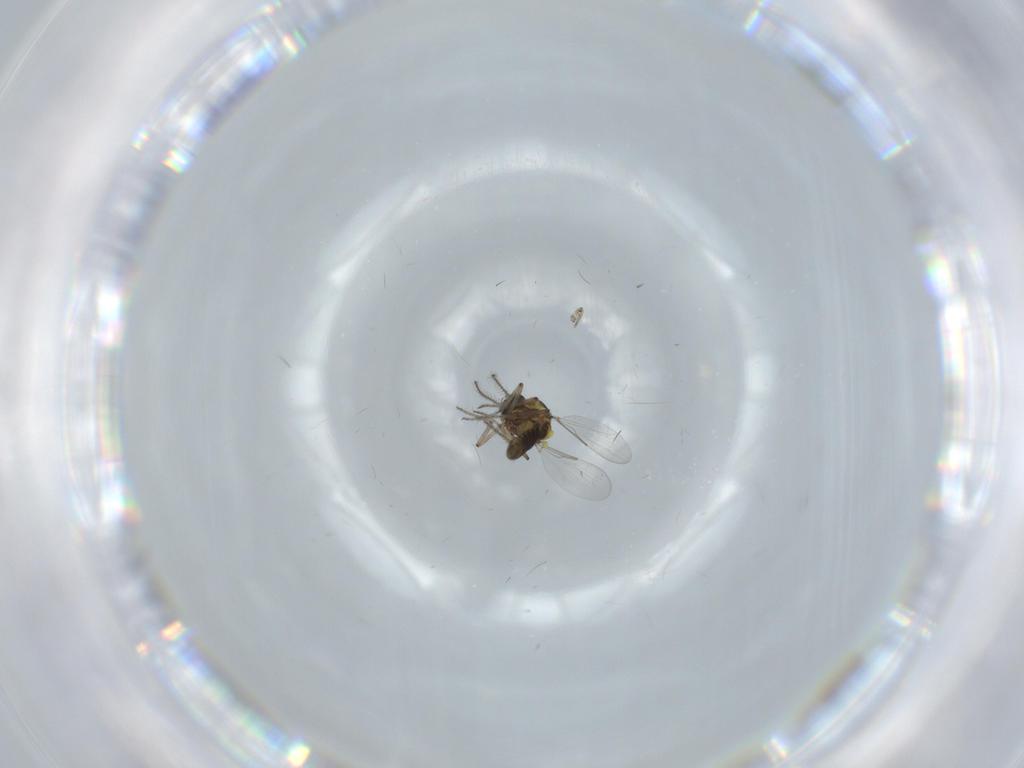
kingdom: Animalia
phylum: Arthropoda
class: Insecta
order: Diptera
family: Ceratopogonidae
